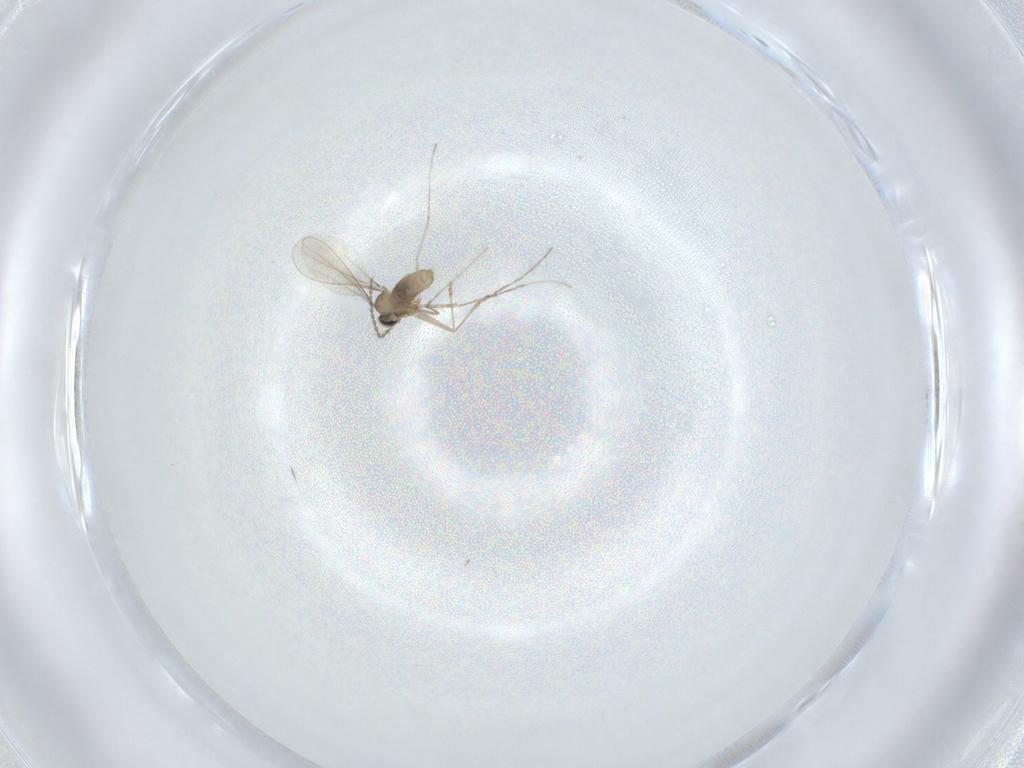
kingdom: Animalia
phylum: Arthropoda
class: Insecta
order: Diptera
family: Cecidomyiidae
